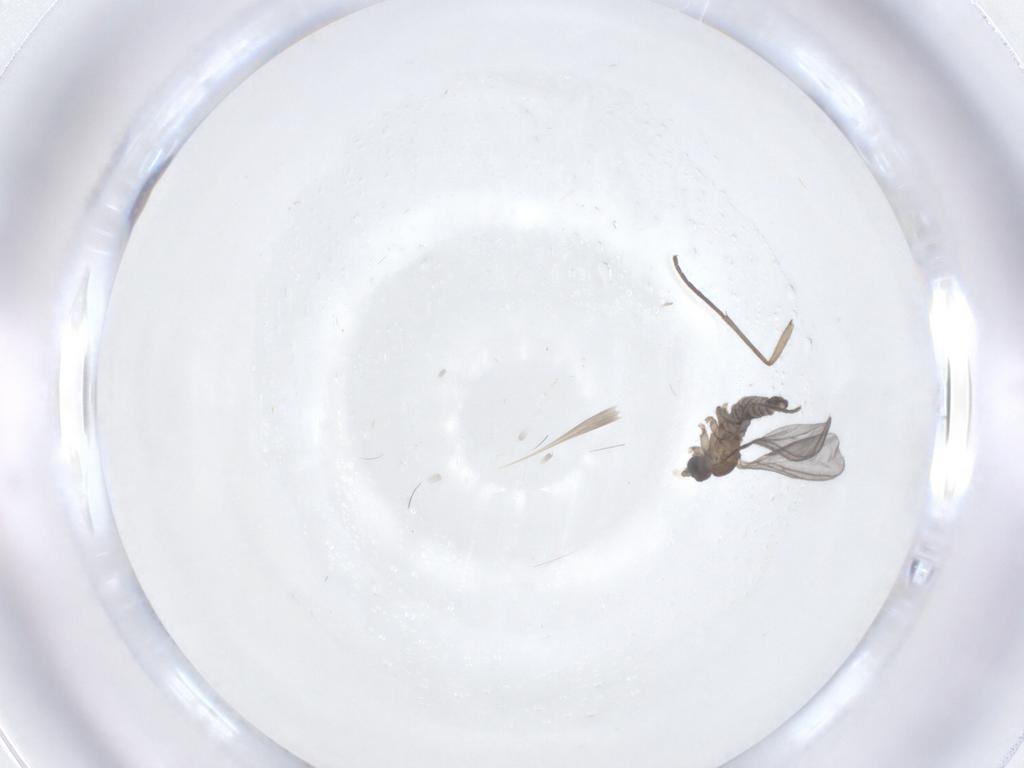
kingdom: Animalia
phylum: Arthropoda
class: Insecta
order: Diptera
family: Sciaridae
